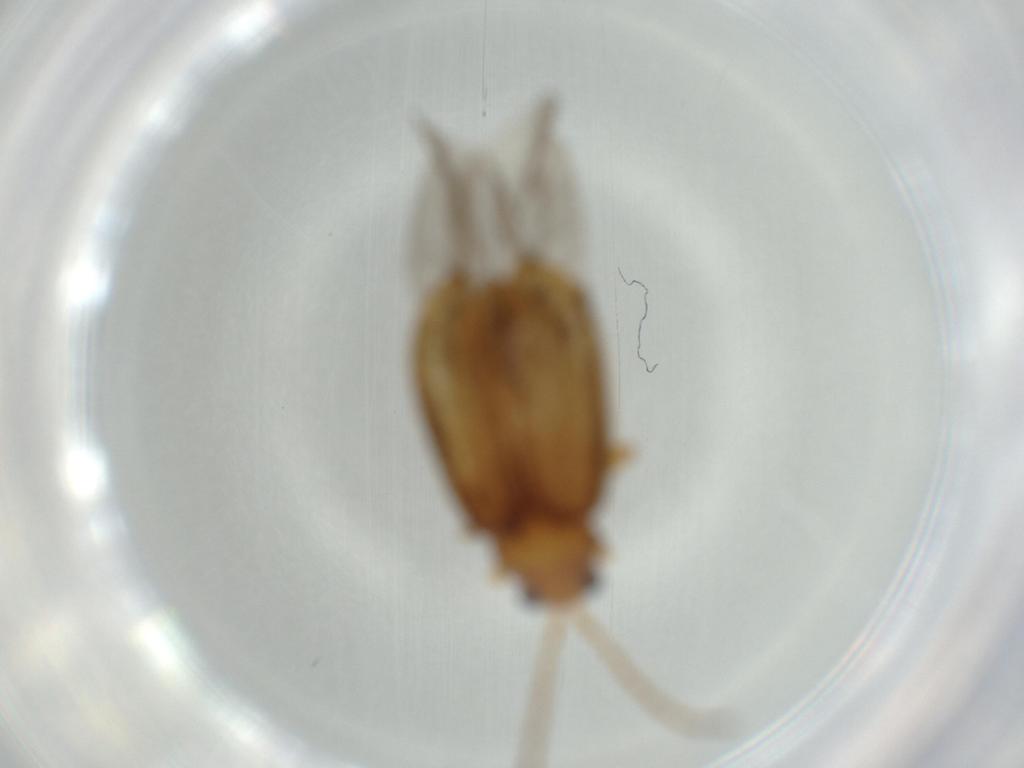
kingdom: Animalia
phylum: Arthropoda
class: Insecta
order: Coleoptera
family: Chrysomelidae
